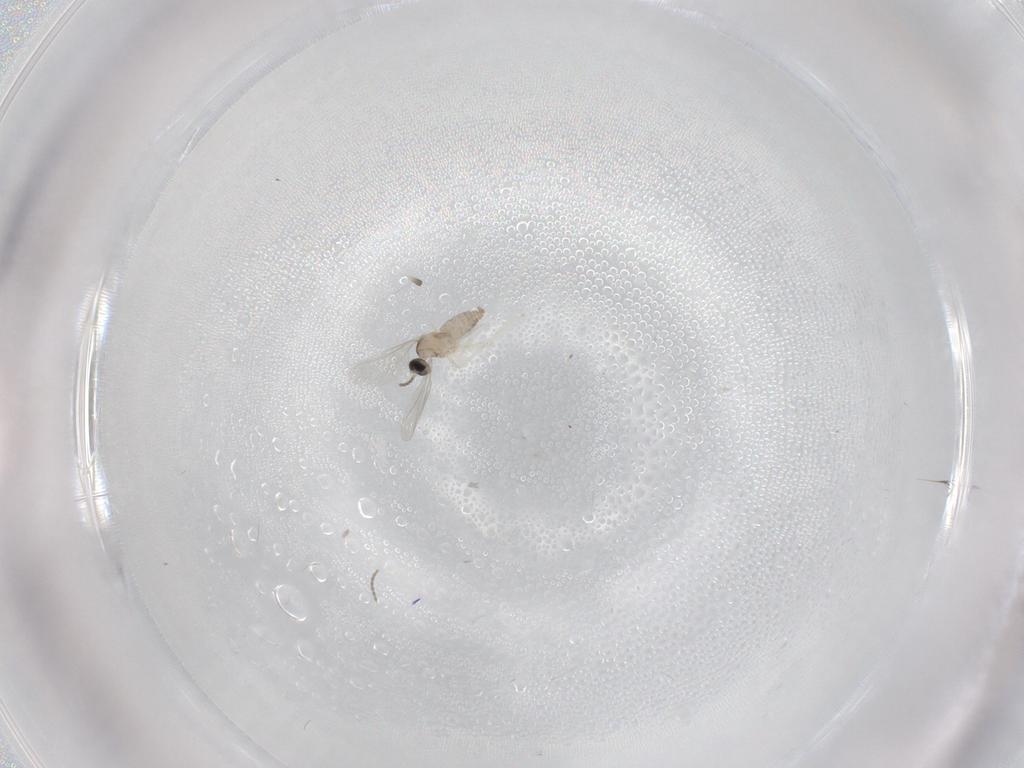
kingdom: Animalia
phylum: Arthropoda
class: Insecta
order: Diptera
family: Cecidomyiidae
